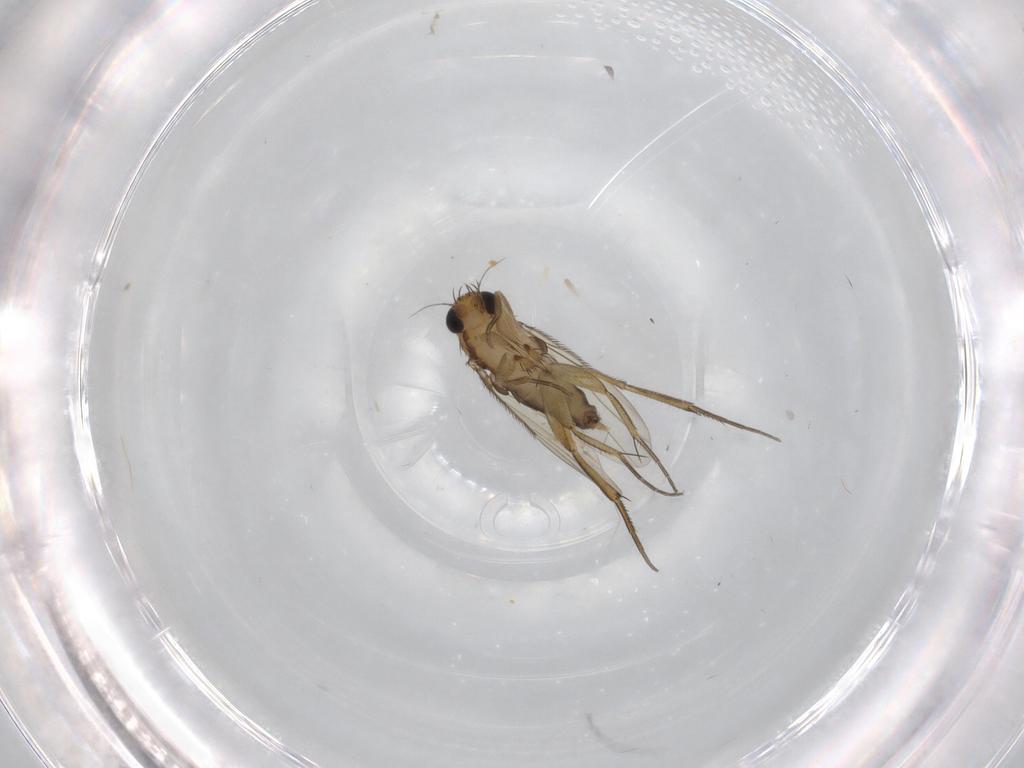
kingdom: Animalia
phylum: Arthropoda
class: Insecta
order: Diptera
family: Phoridae
